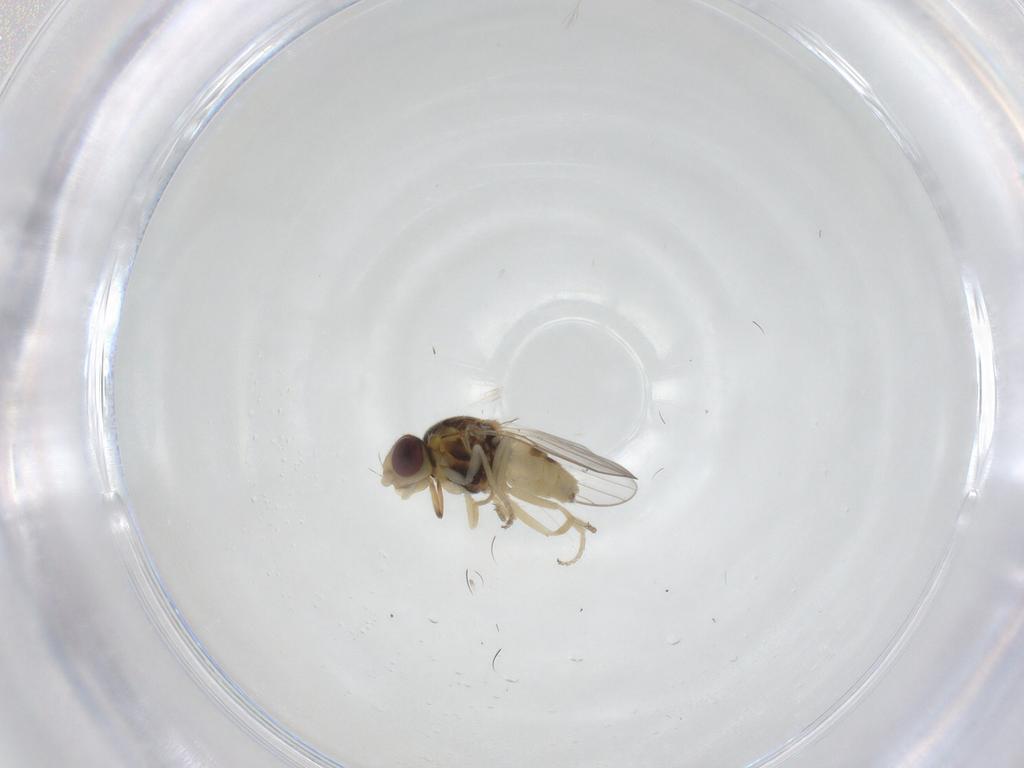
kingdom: Animalia
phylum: Arthropoda
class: Insecta
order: Diptera
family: Chloropidae
